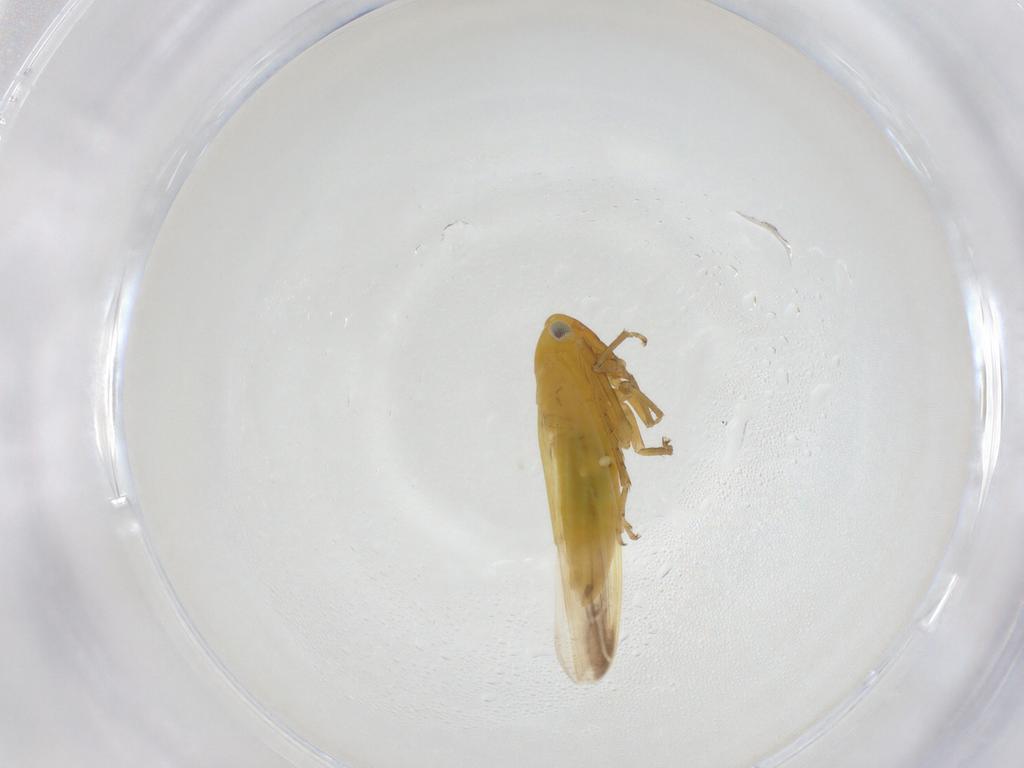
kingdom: Animalia
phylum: Arthropoda
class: Insecta
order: Hemiptera
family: Cicadellidae
